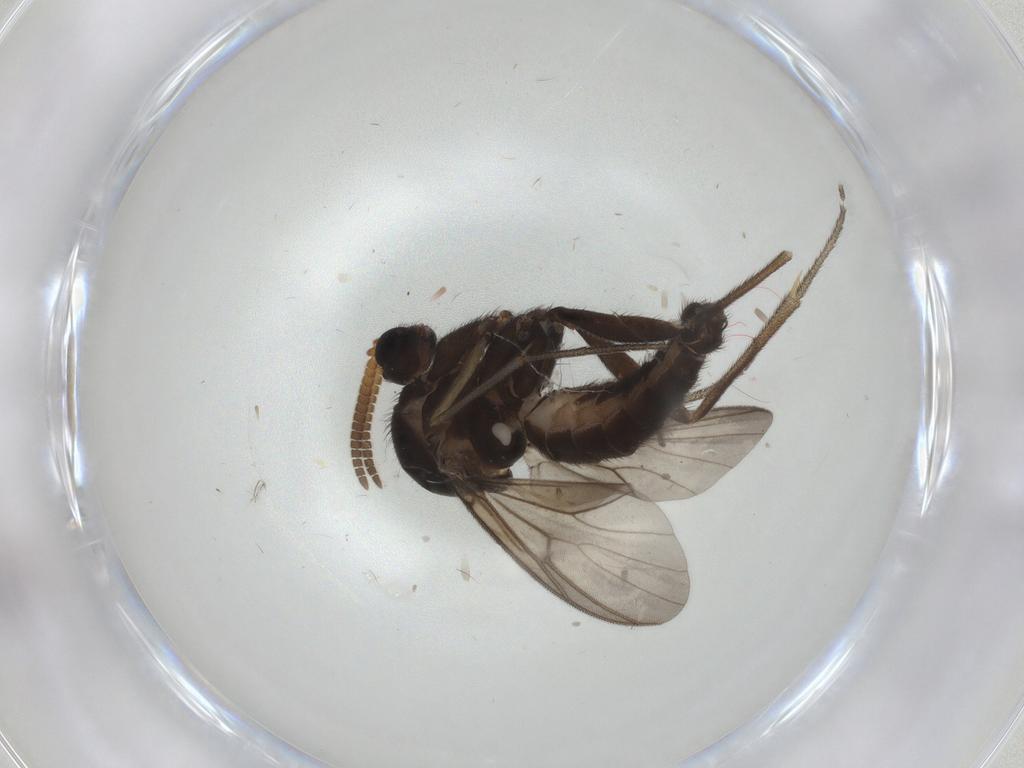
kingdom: Animalia
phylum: Arthropoda
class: Insecta
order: Diptera
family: Mycetophilidae
